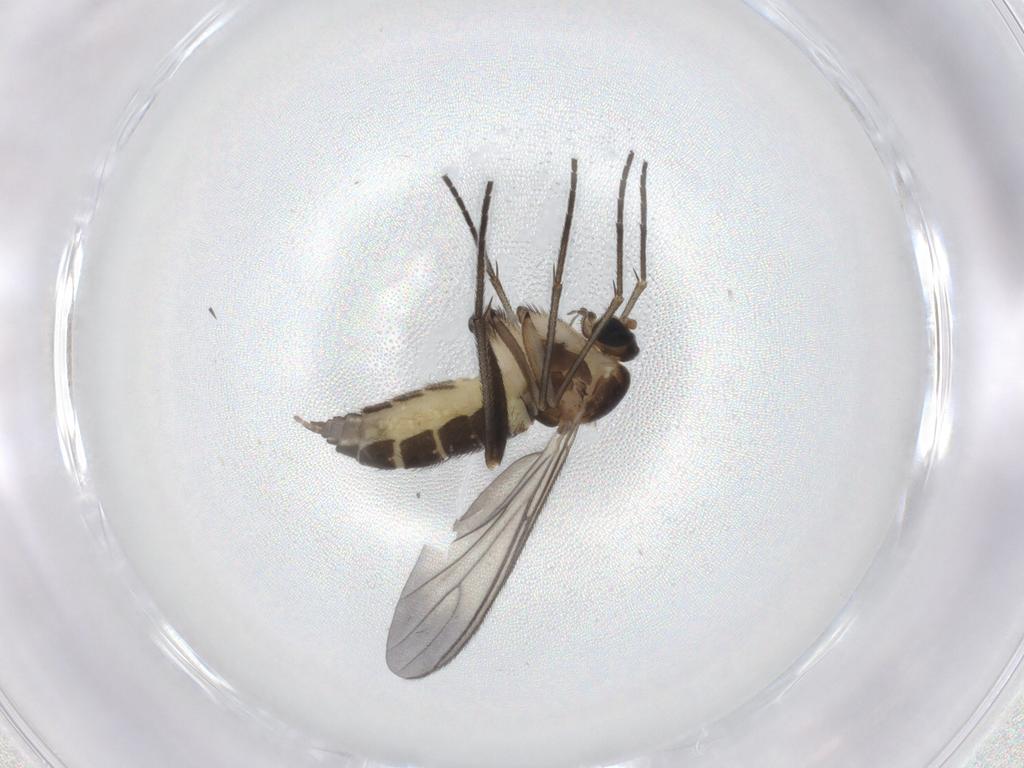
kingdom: Animalia
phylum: Arthropoda
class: Insecta
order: Diptera
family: Sciaridae
